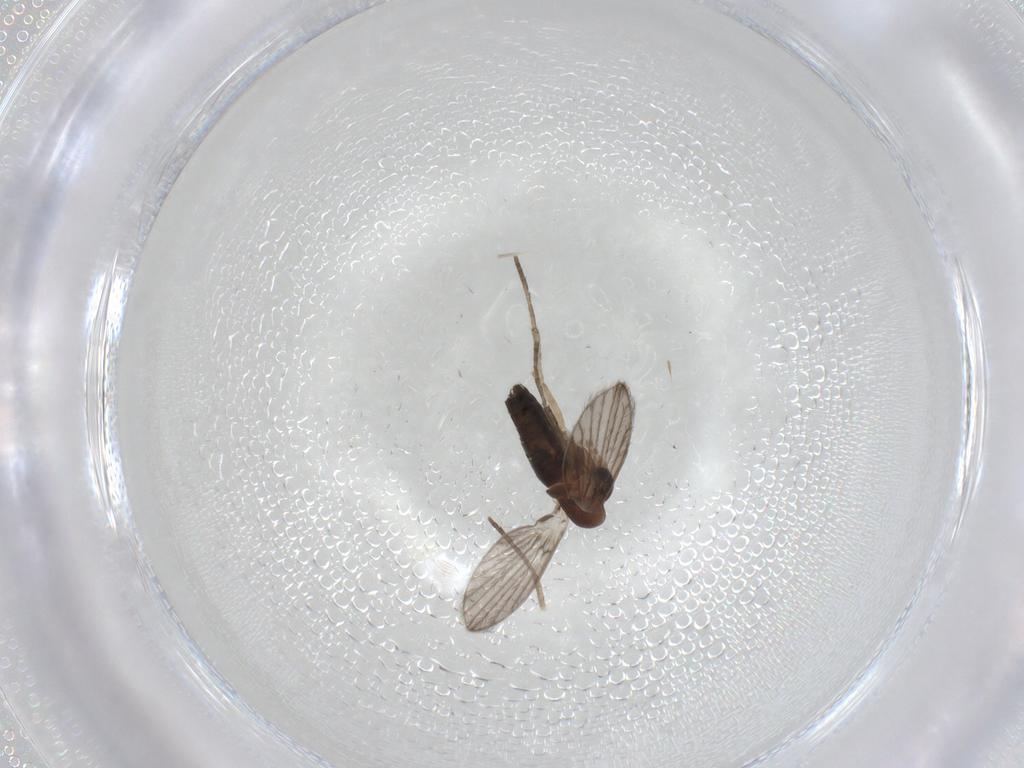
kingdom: Animalia
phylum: Arthropoda
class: Insecta
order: Diptera
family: Psychodidae
